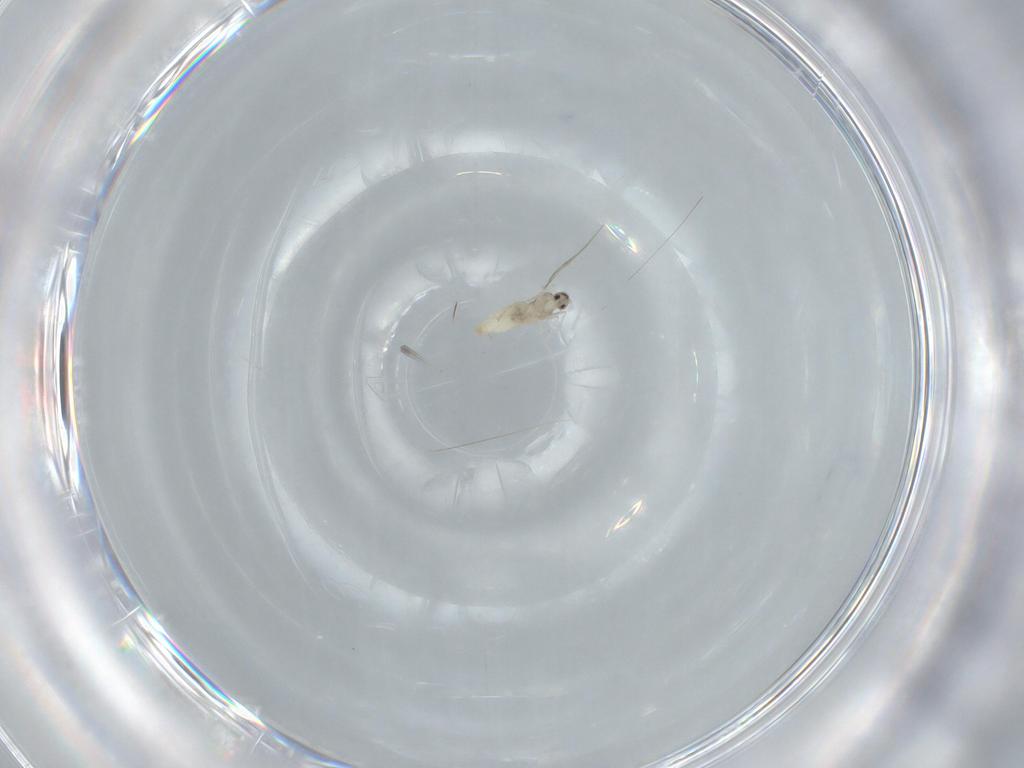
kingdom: Animalia
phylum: Arthropoda
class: Insecta
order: Diptera
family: Cecidomyiidae
